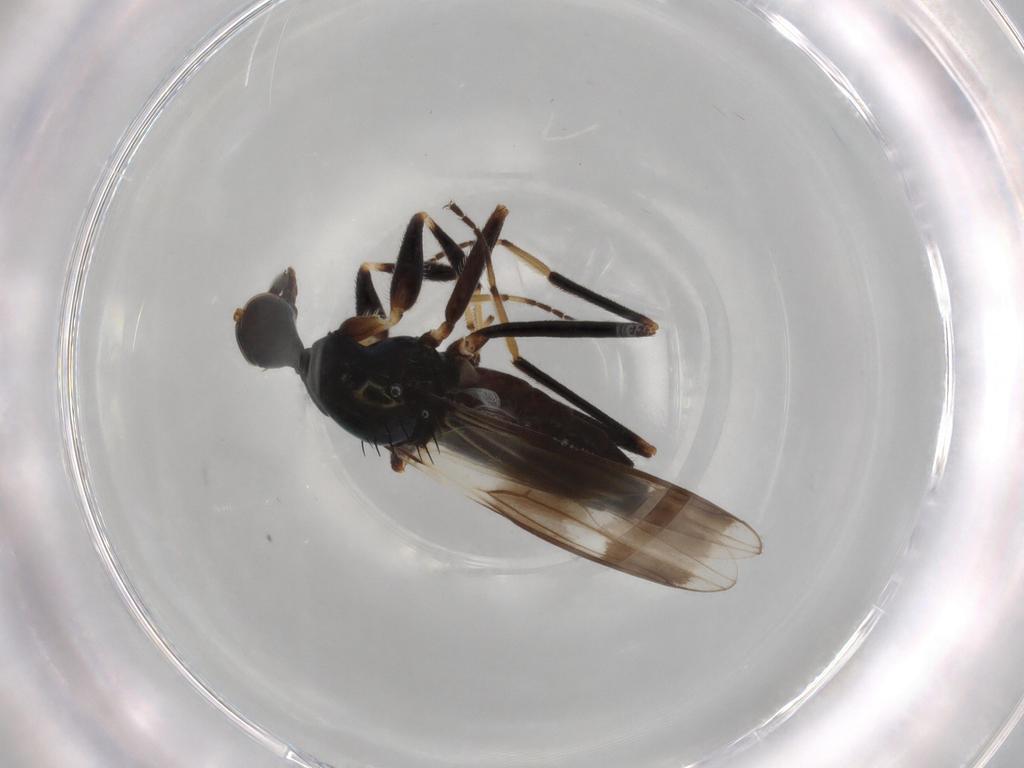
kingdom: Animalia
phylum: Arthropoda
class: Insecta
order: Diptera
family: Hybotidae
